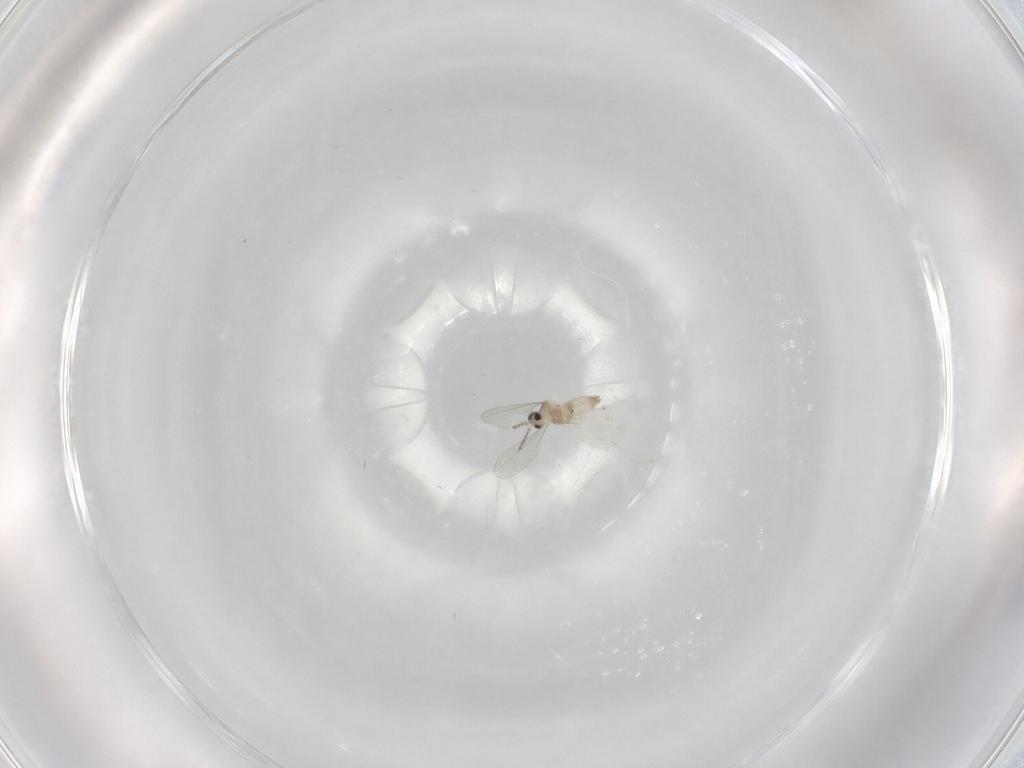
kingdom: Animalia
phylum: Arthropoda
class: Insecta
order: Diptera
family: Cecidomyiidae
